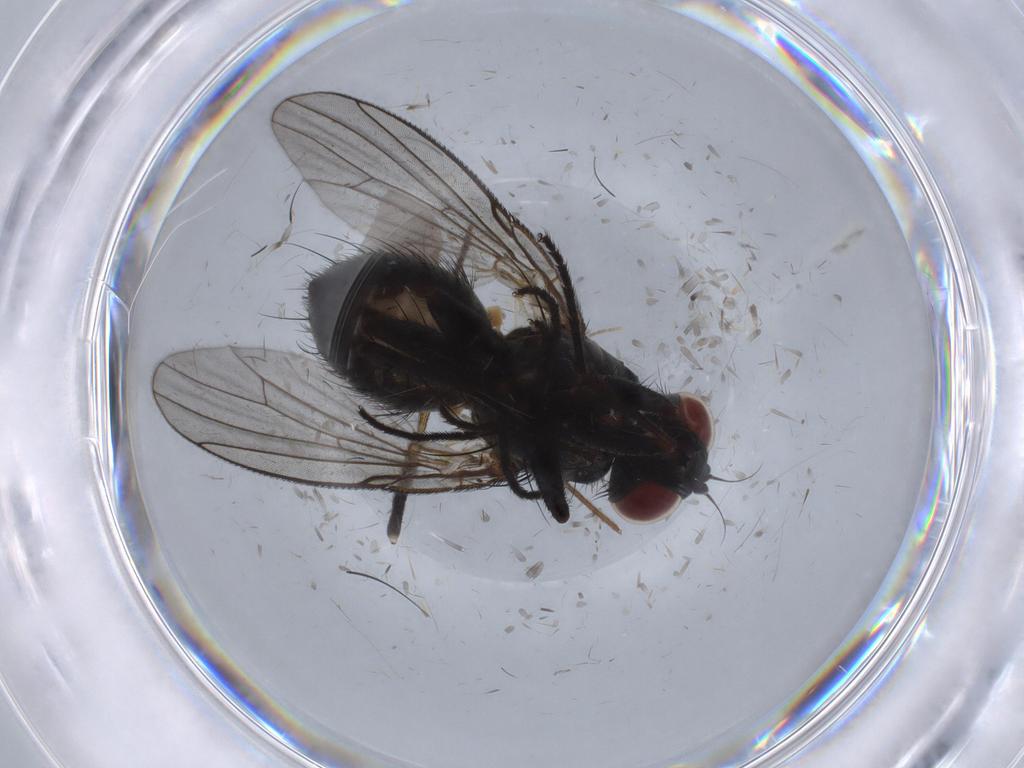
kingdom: Animalia
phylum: Arthropoda
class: Insecta
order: Diptera
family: Muscidae
